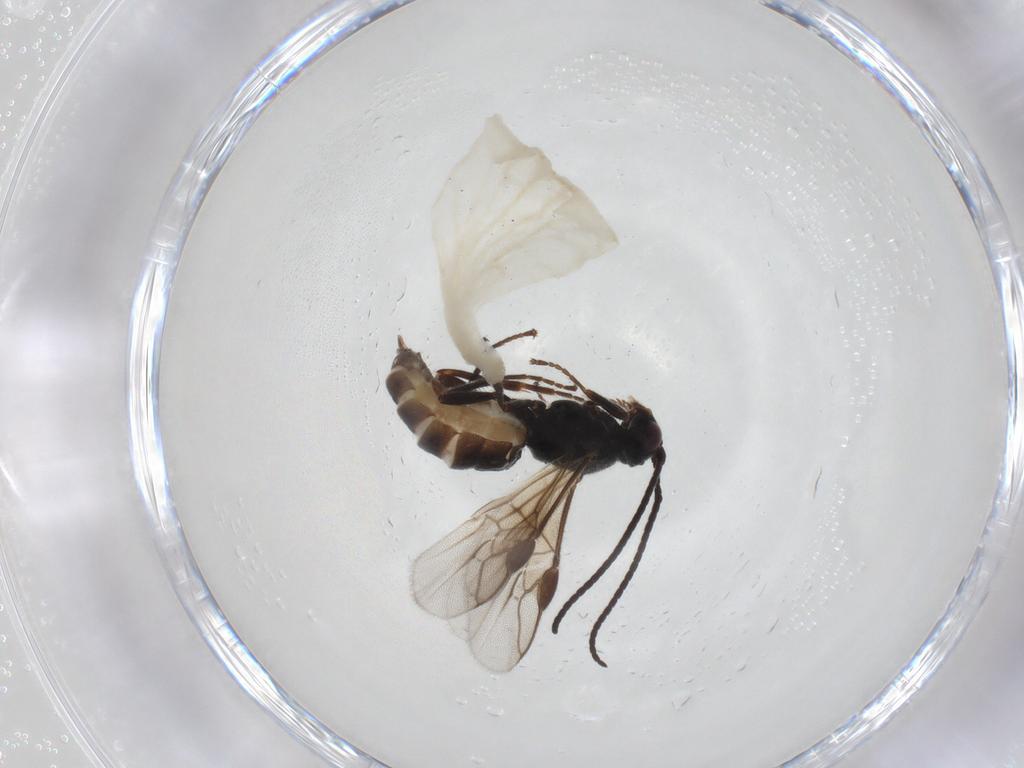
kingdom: Animalia
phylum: Arthropoda
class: Insecta
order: Hymenoptera
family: Braconidae
